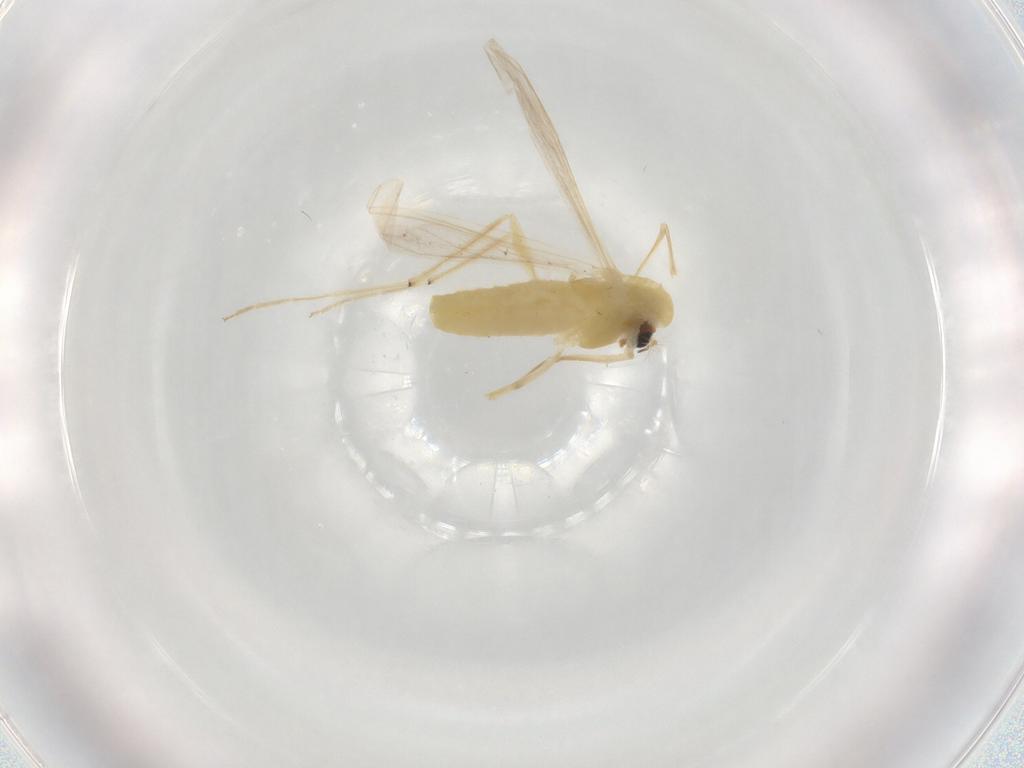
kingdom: Animalia
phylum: Arthropoda
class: Insecta
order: Diptera
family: Chironomidae
